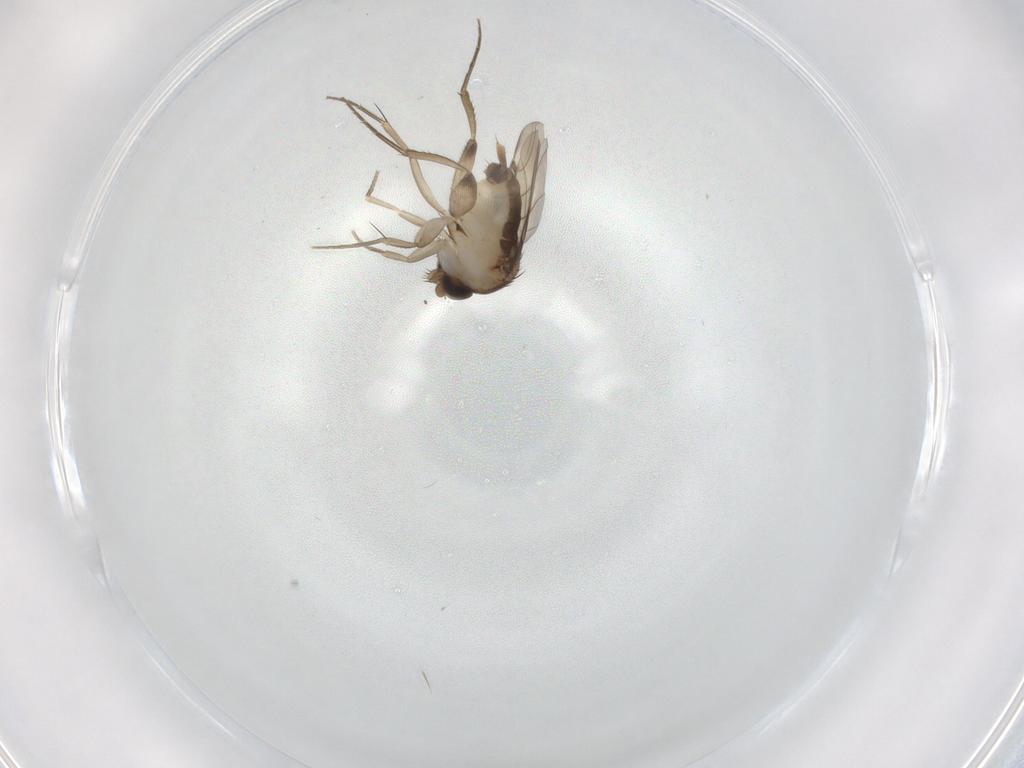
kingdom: Animalia
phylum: Arthropoda
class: Insecta
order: Diptera
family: Phoridae
